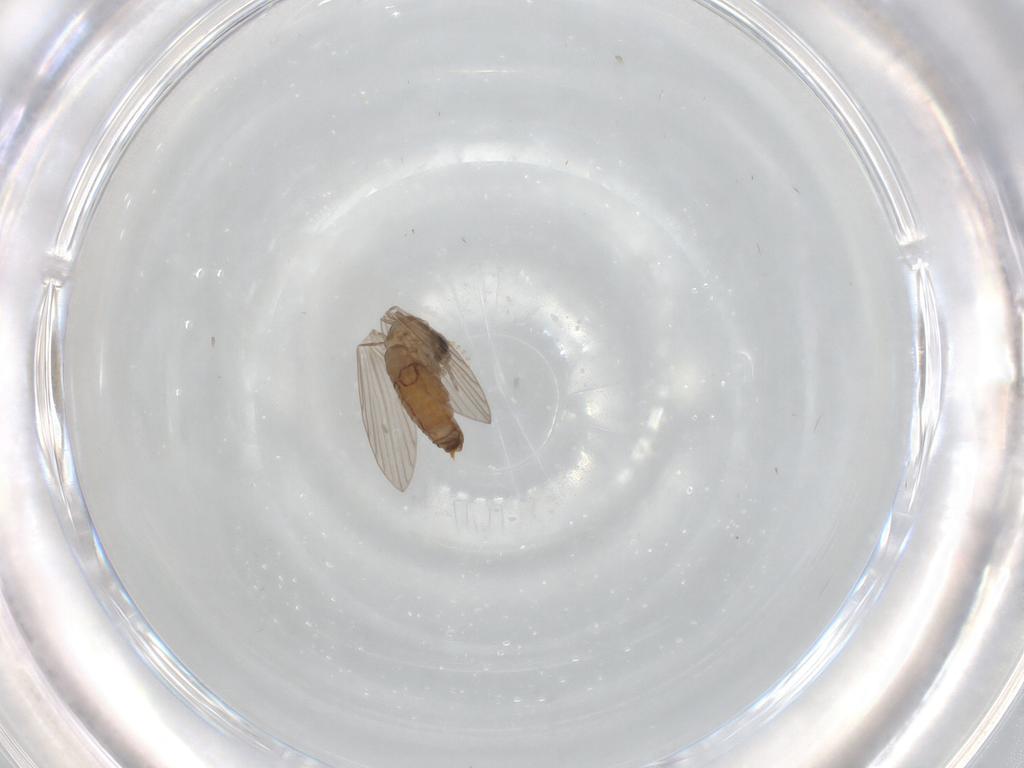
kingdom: Animalia
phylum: Arthropoda
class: Insecta
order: Diptera
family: Psychodidae
